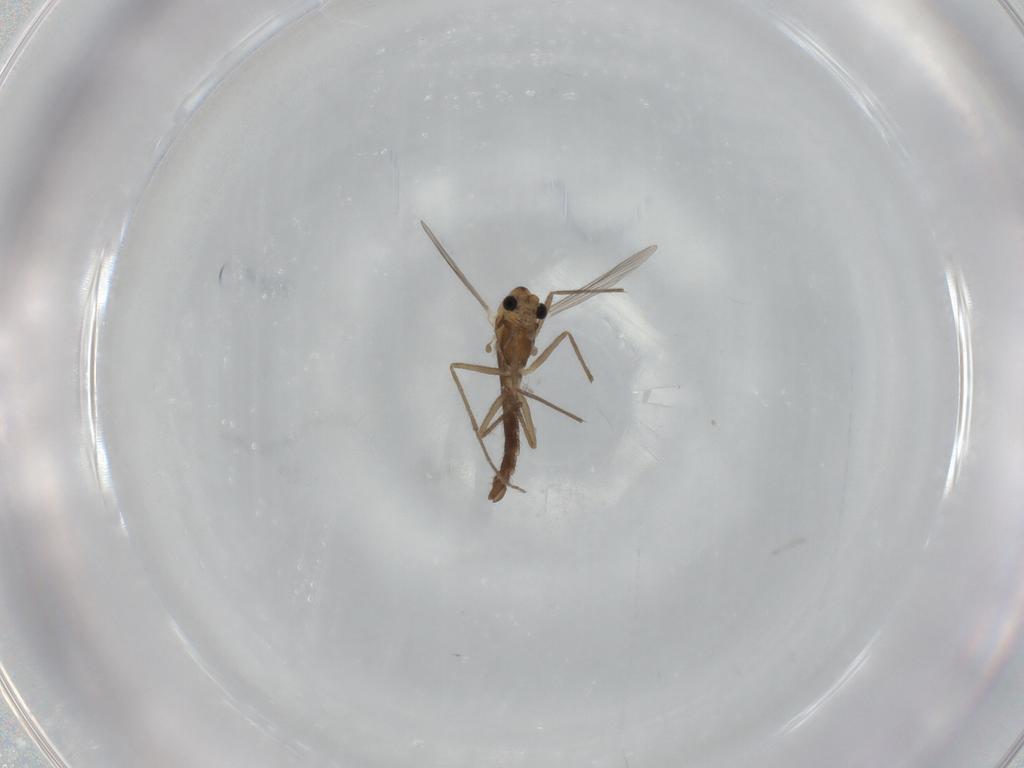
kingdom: Animalia
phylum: Arthropoda
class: Insecta
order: Diptera
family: Chironomidae
